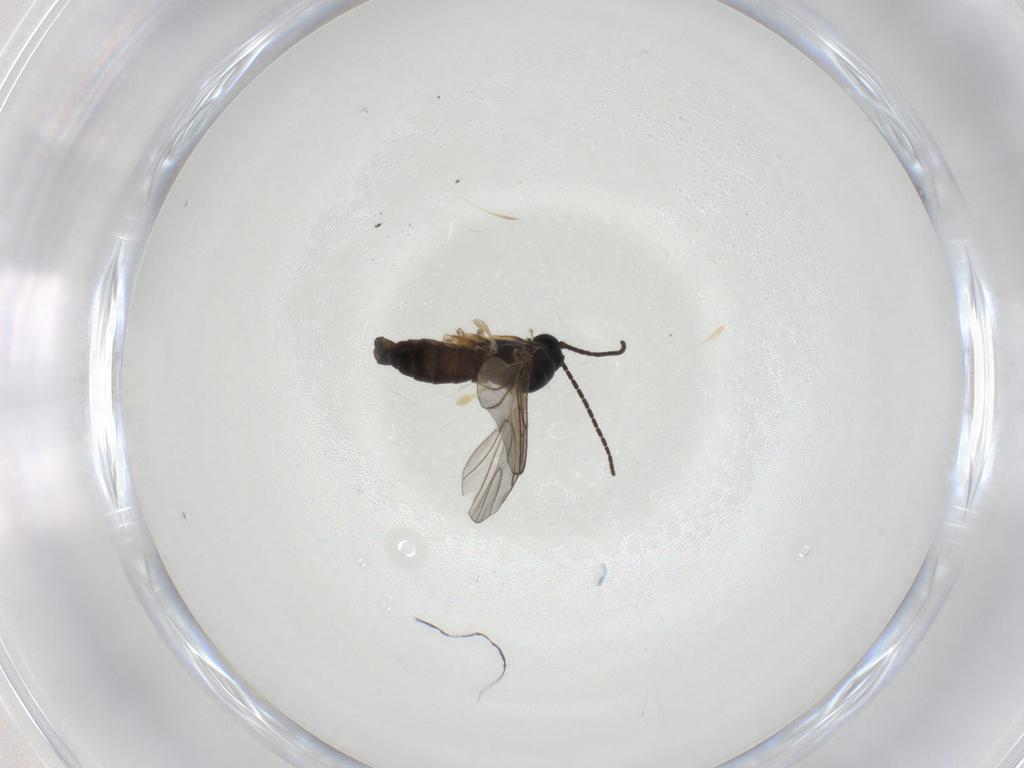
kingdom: Animalia
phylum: Arthropoda
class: Insecta
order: Diptera
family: Sciaridae
